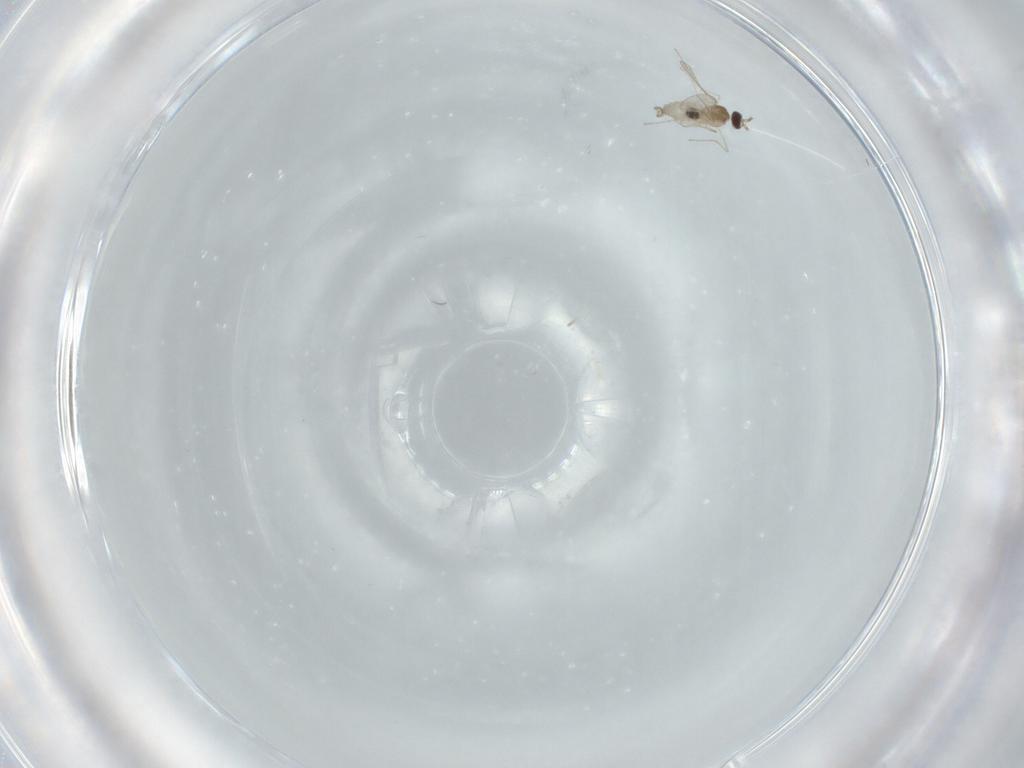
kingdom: Animalia
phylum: Arthropoda
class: Insecta
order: Diptera
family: Cecidomyiidae
